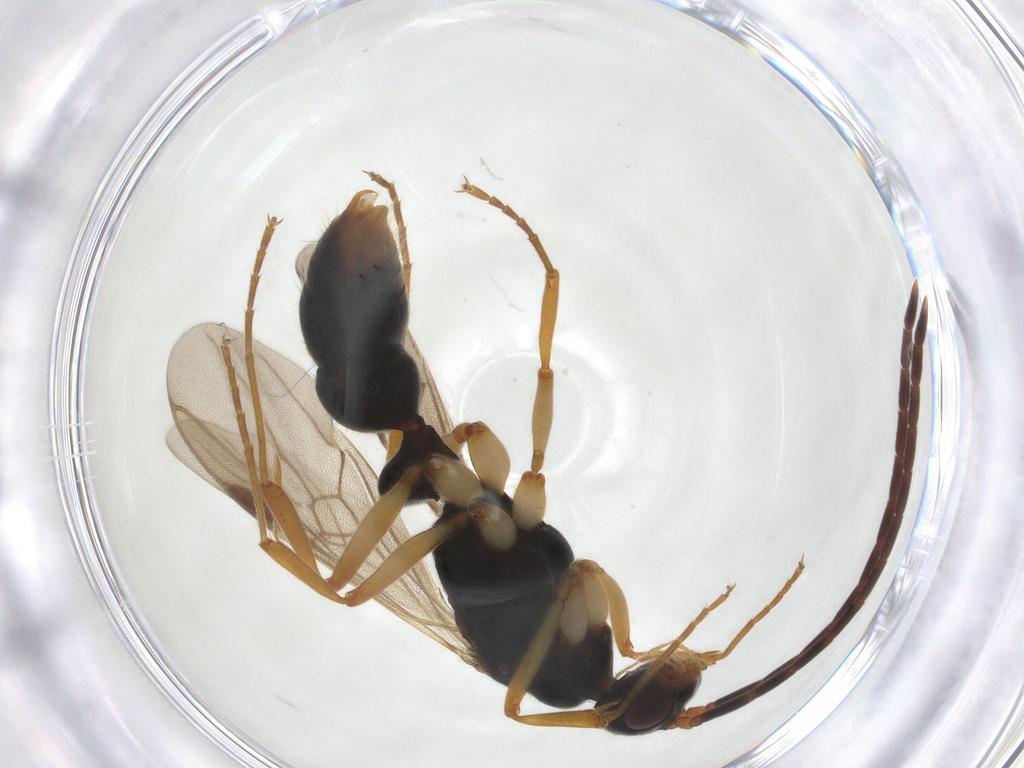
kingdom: Animalia
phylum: Arthropoda
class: Insecta
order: Hymenoptera
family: Formicidae
